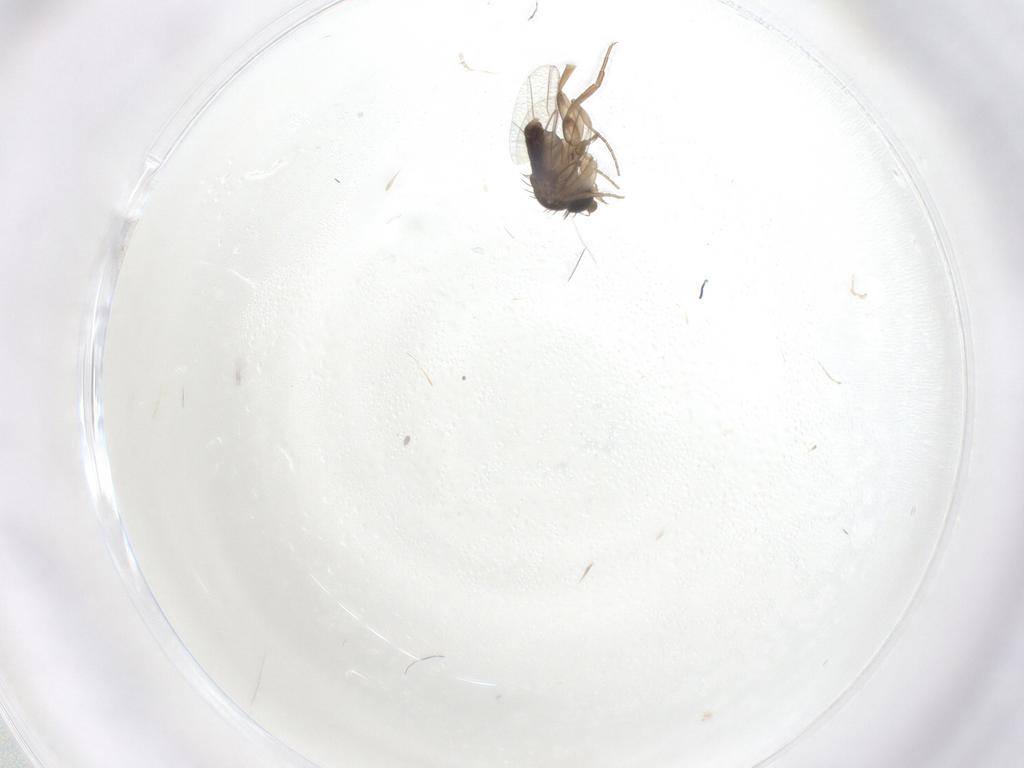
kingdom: Animalia
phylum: Arthropoda
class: Insecta
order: Diptera
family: Phoridae
